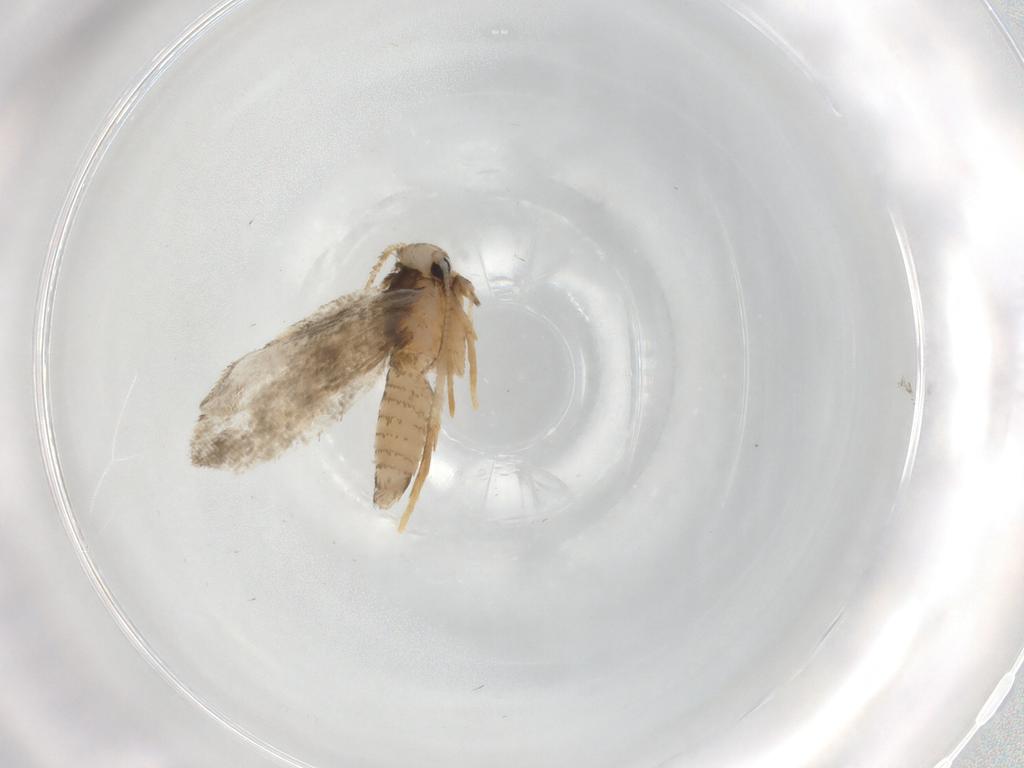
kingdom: Animalia
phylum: Arthropoda
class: Insecta
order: Lepidoptera
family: Psychidae
